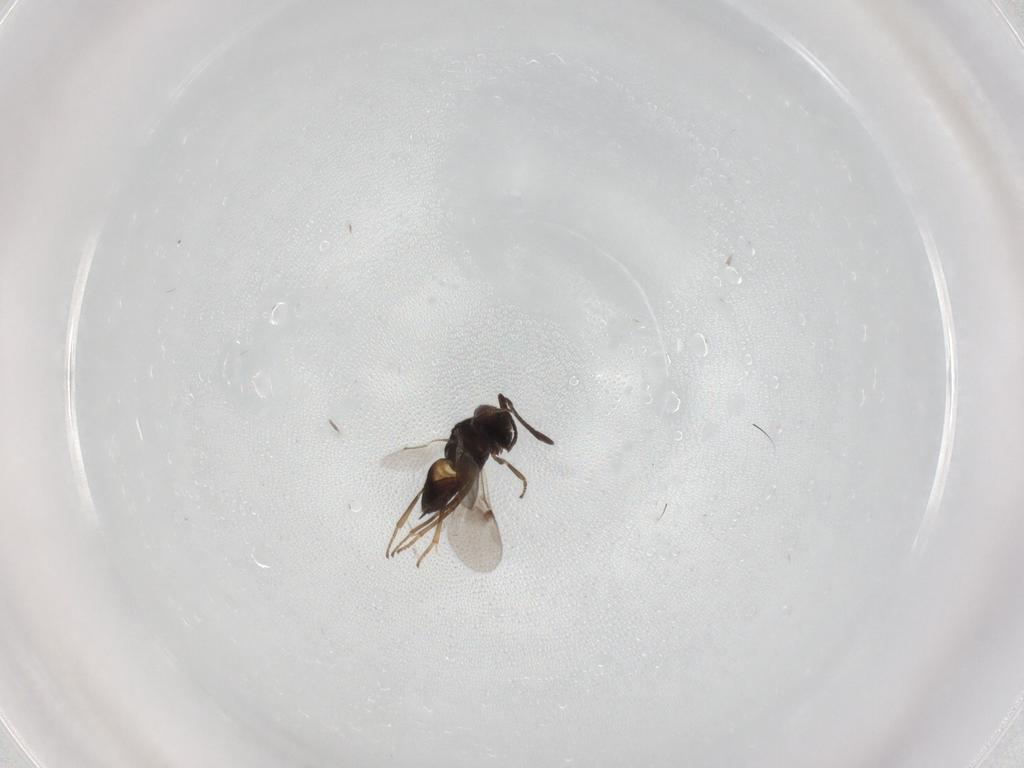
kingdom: Animalia
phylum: Arthropoda
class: Insecta
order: Hymenoptera
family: Encyrtidae
